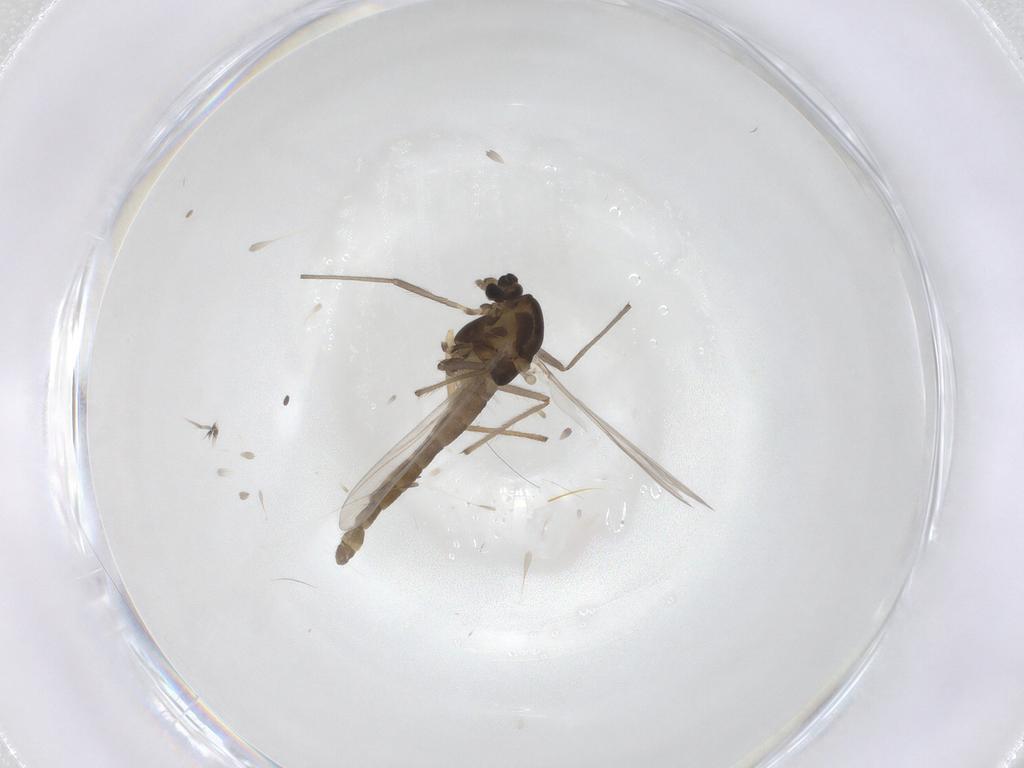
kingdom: Animalia
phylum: Arthropoda
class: Insecta
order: Diptera
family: Chironomidae
